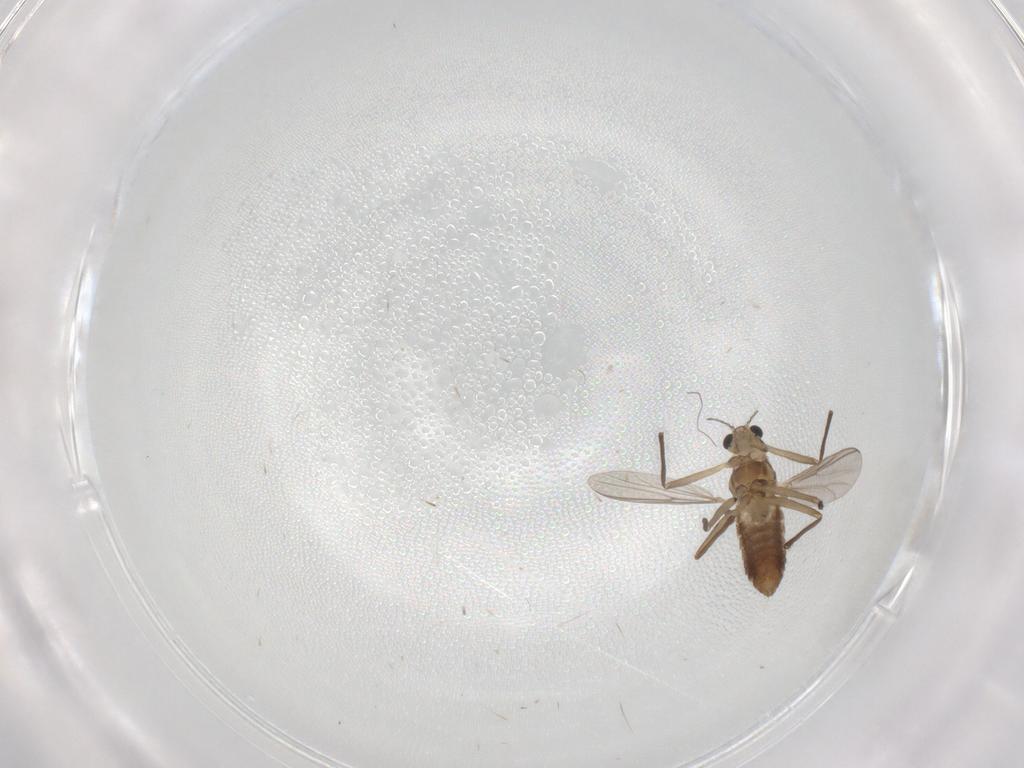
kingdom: Animalia
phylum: Arthropoda
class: Insecta
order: Diptera
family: Chironomidae
